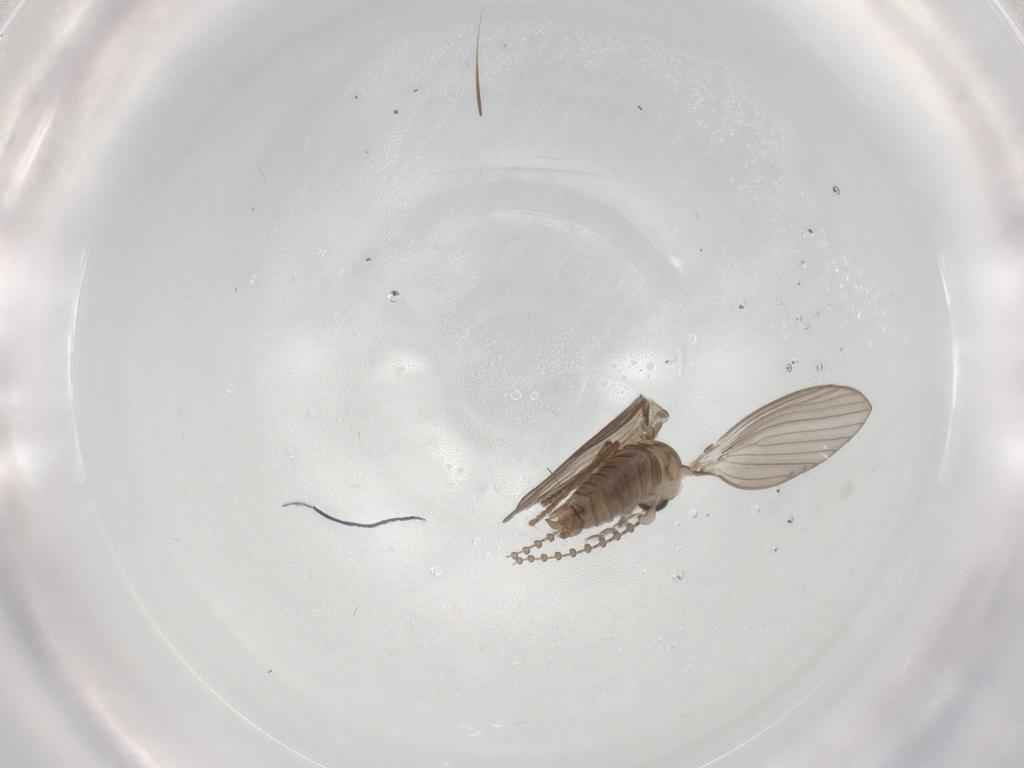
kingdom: Animalia
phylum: Arthropoda
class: Insecta
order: Diptera
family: Psychodidae
